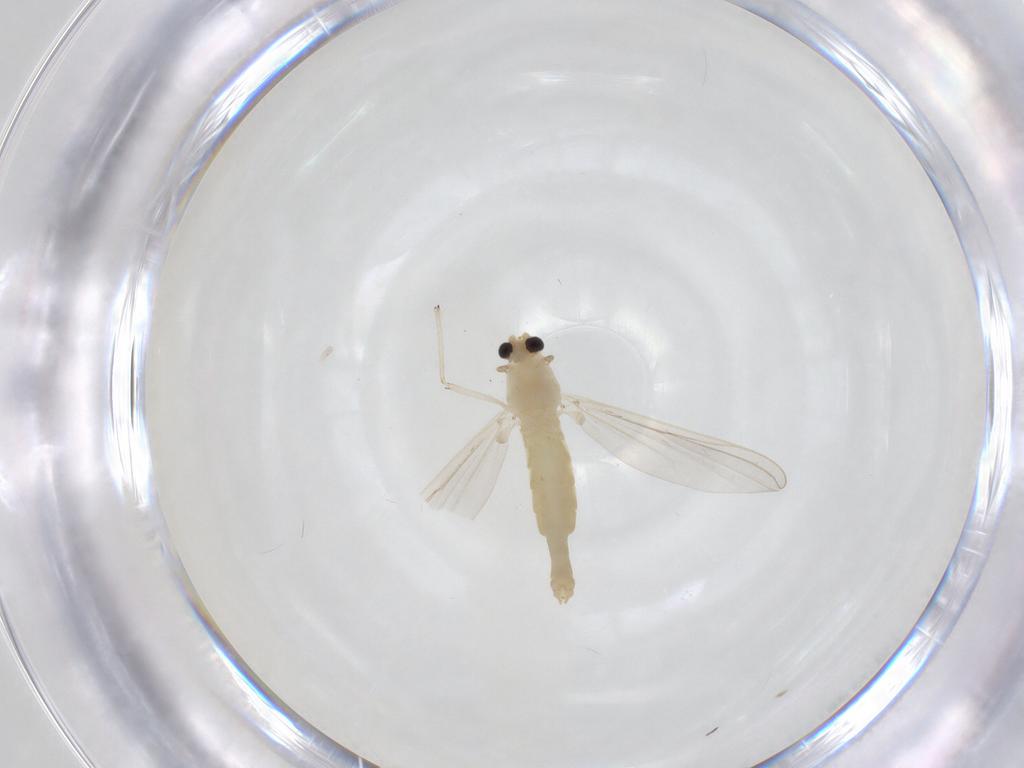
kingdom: Animalia
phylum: Arthropoda
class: Insecta
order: Diptera
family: Chironomidae
